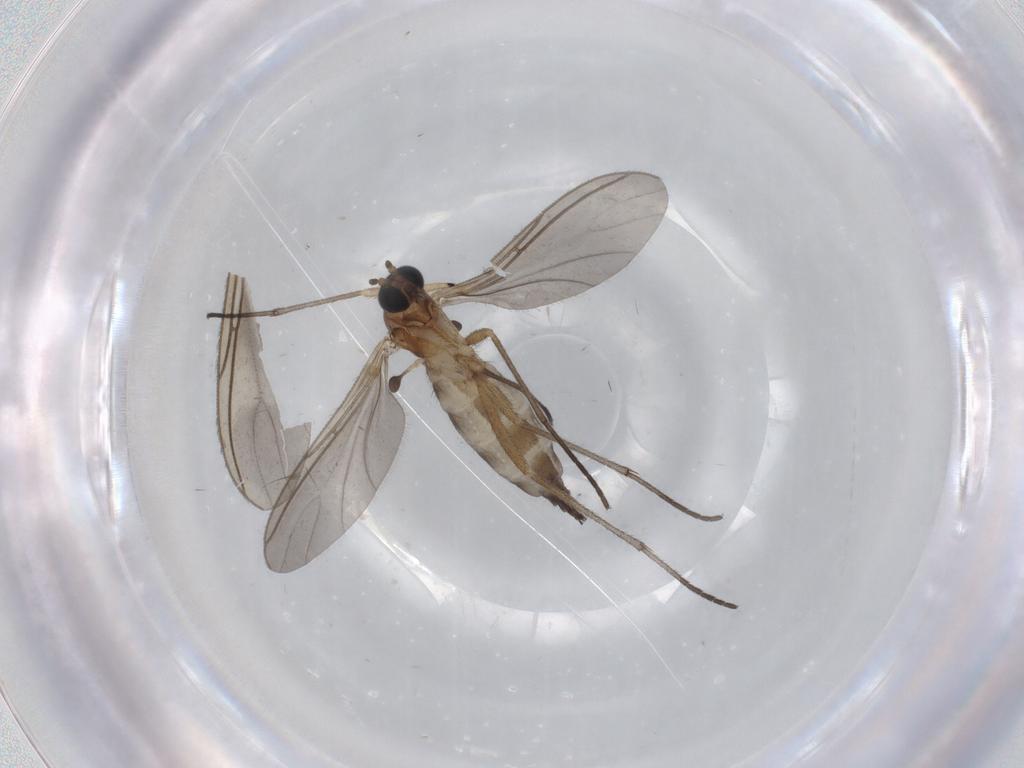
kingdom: Animalia
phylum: Arthropoda
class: Insecta
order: Diptera
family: Sciaridae
